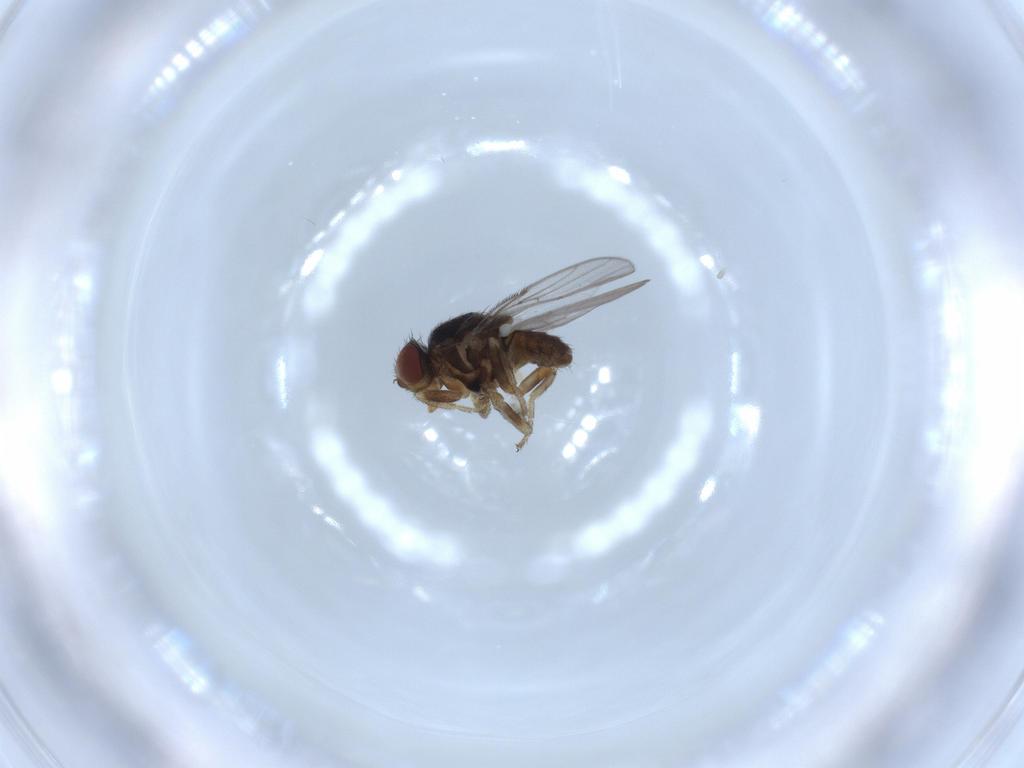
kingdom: Animalia
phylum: Arthropoda
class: Insecta
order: Diptera
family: Chloropidae
